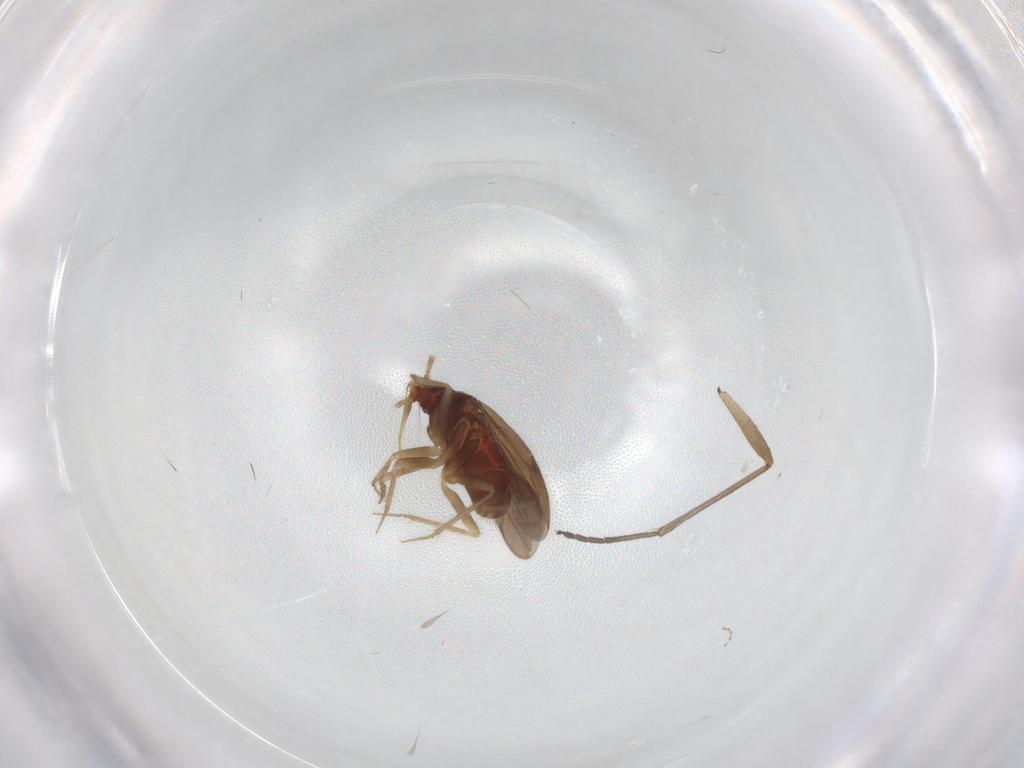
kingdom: Animalia
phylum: Arthropoda
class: Insecta
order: Hemiptera
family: Ceratocombidae
